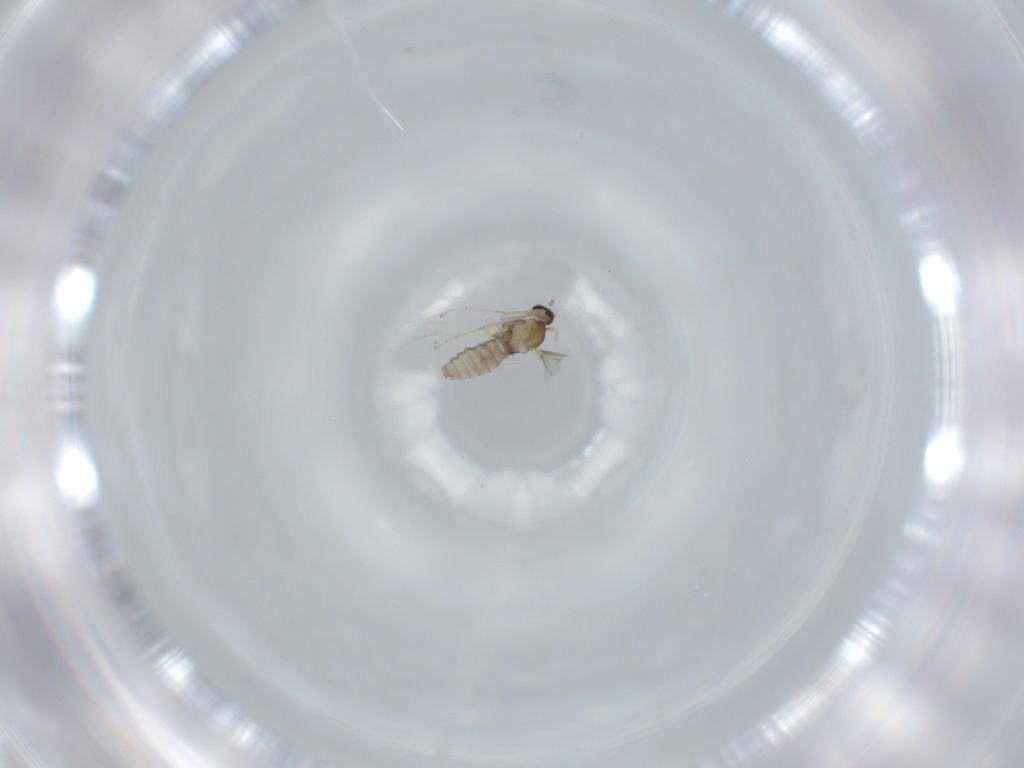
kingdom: Animalia
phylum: Arthropoda
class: Insecta
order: Diptera
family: Cecidomyiidae
